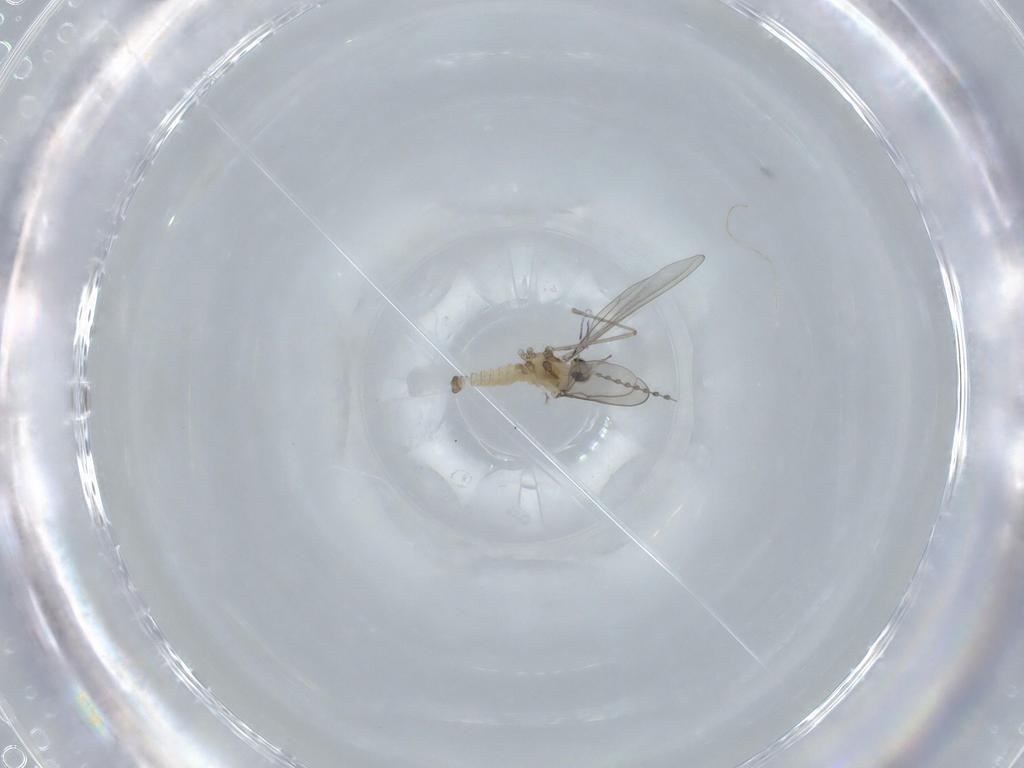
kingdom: Animalia
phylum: Arthropoda
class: Insecta
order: Diptera
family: Cecidomyiidae
